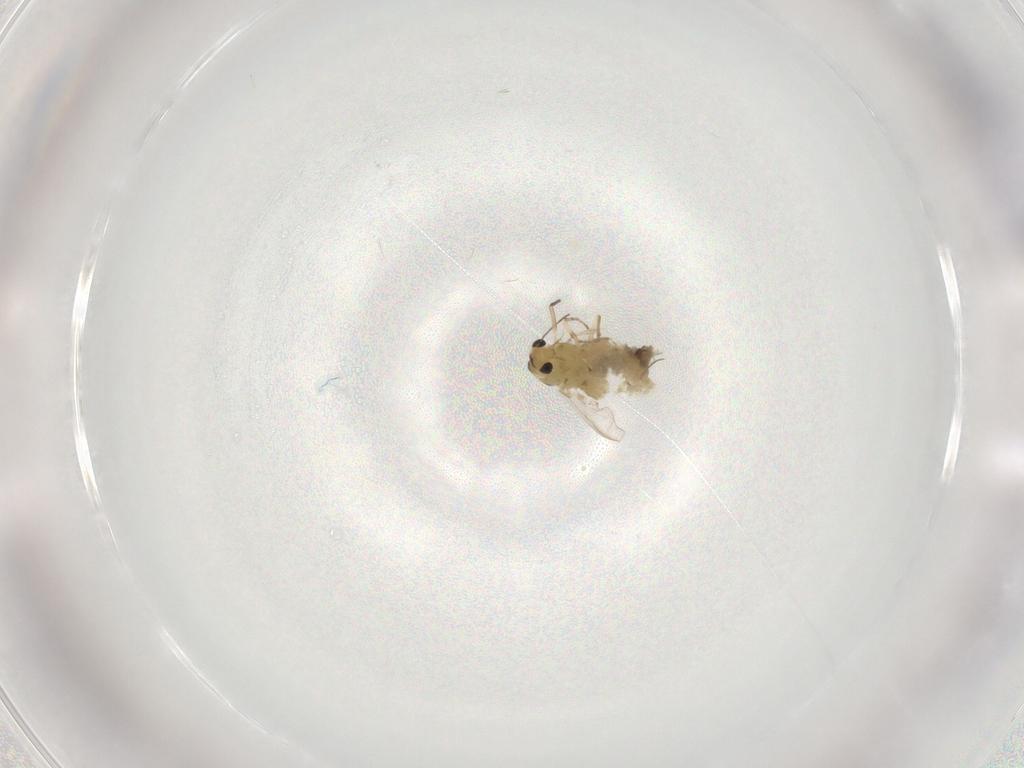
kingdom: Animalia
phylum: Arthropoda
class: Insecta
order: Diptera
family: Chironomidae
